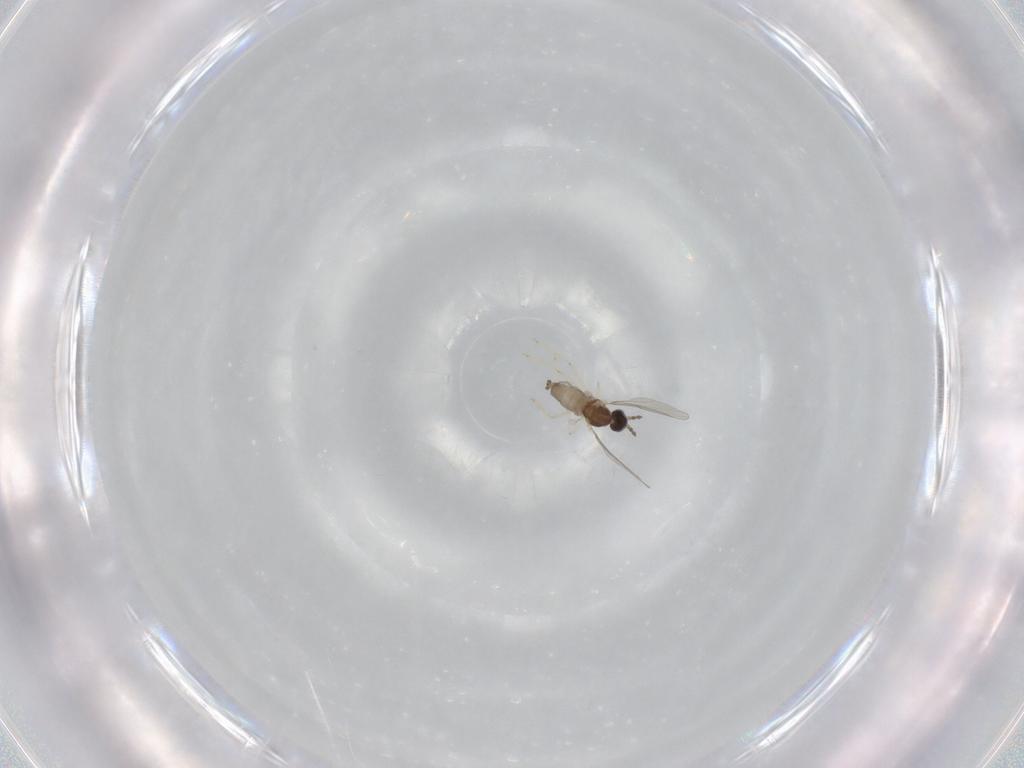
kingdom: Animalia
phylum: Arthropoda
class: Insecta
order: Diptera
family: Cecidomyiidae
